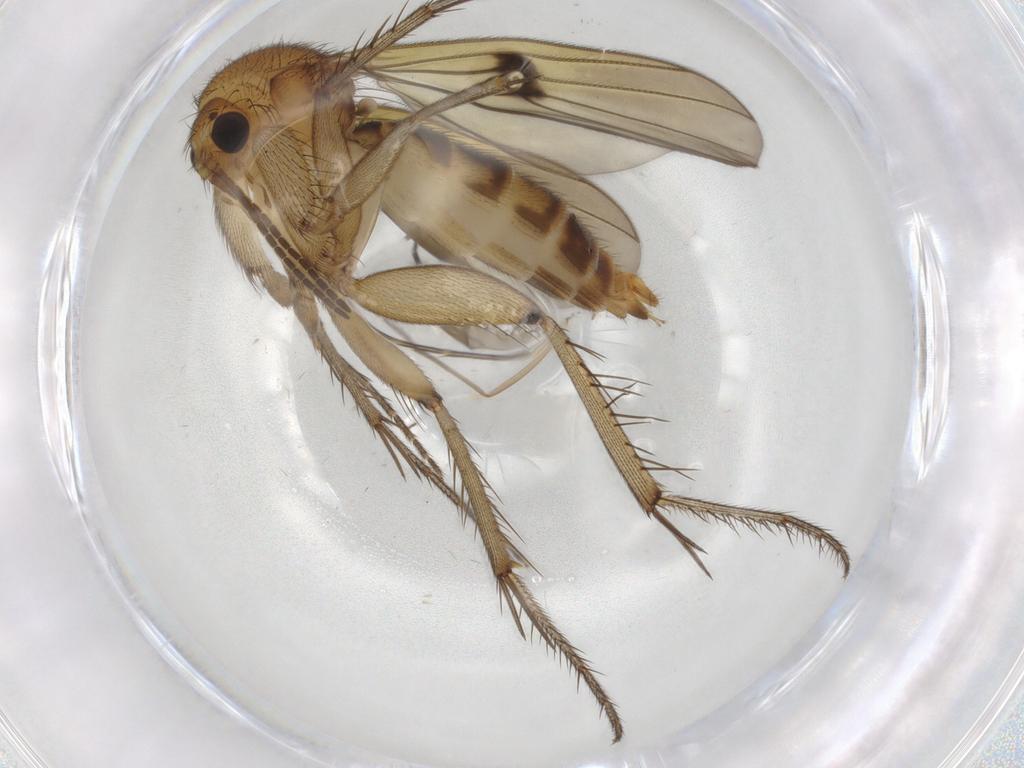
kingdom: Animalia
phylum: Arthropoda
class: Insecta
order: Diptera
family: Mycetophilidae
